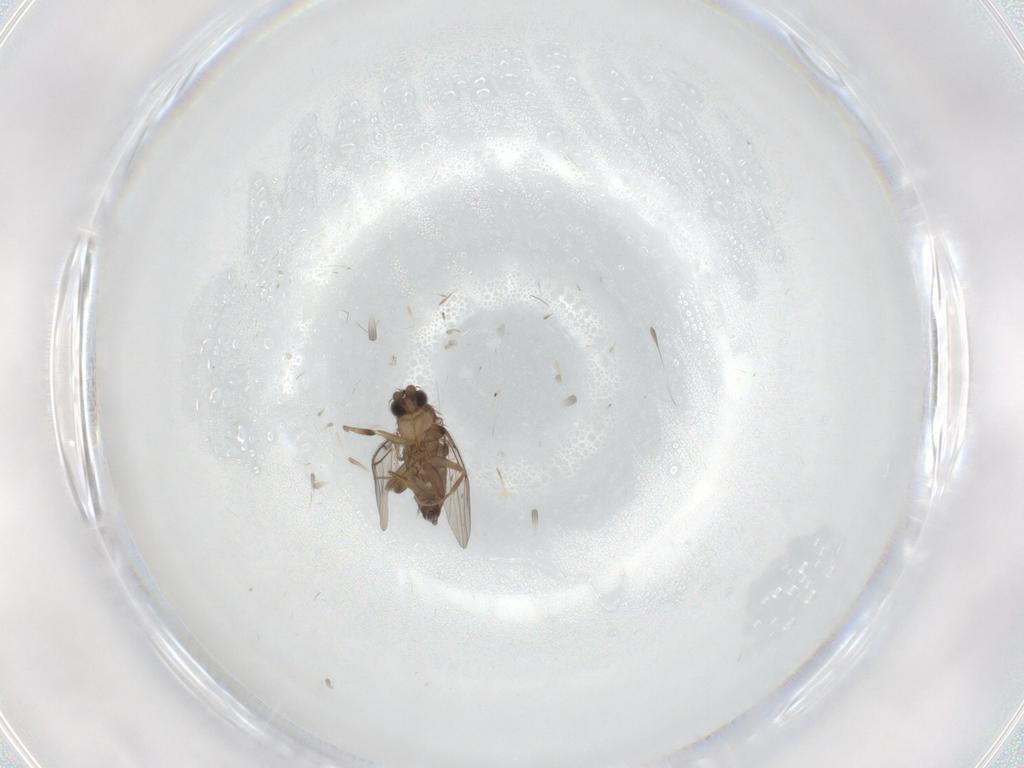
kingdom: Animalia
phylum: Arthropoda
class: Insecta
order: Diptera
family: Phoridae
